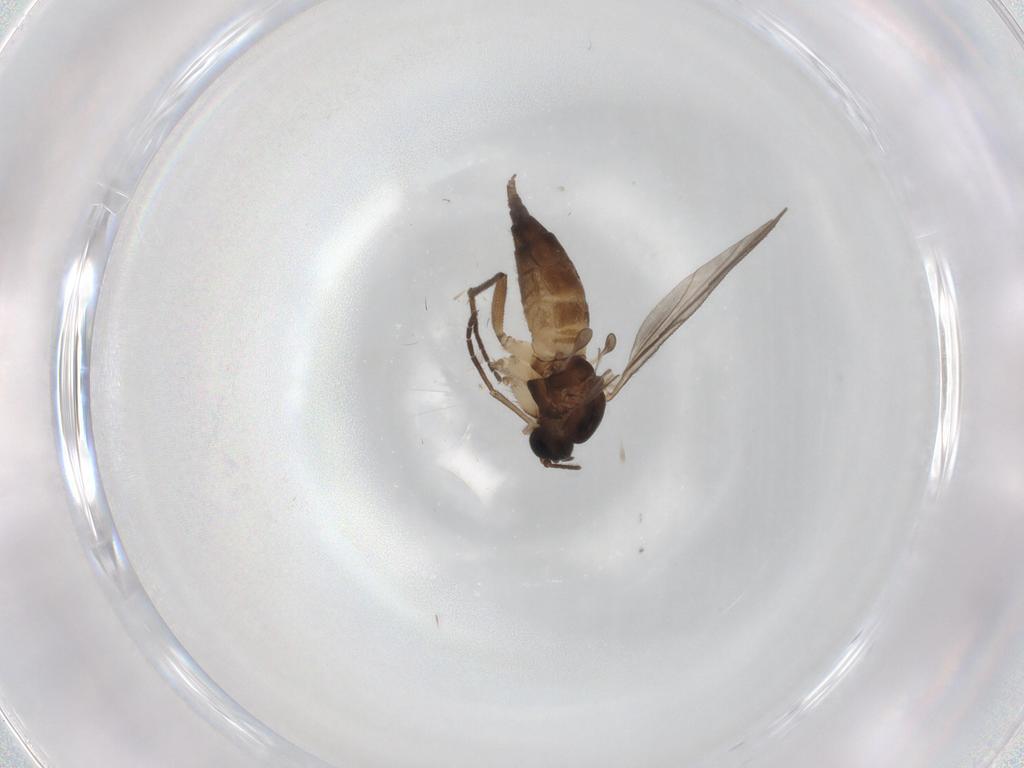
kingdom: Animalia
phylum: Arthropoda
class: Insecta
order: Diptera
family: Sciaridae
